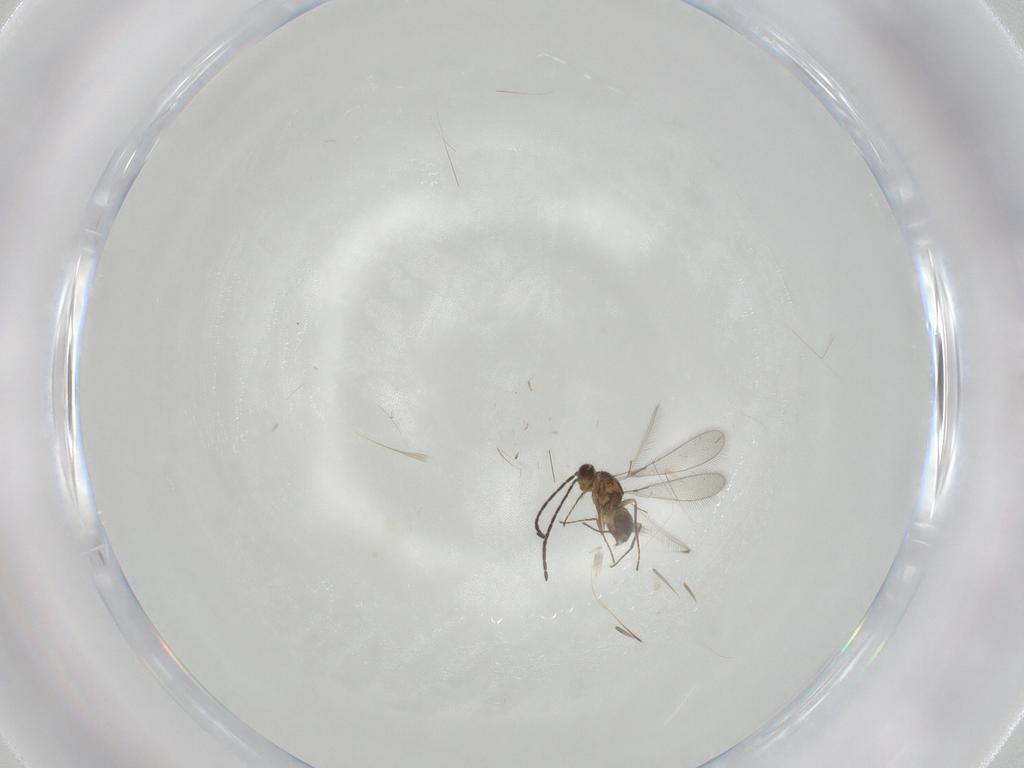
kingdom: Animalia
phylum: Arthropoda
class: Insecta
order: Hymenoptera
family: Mymaridae
